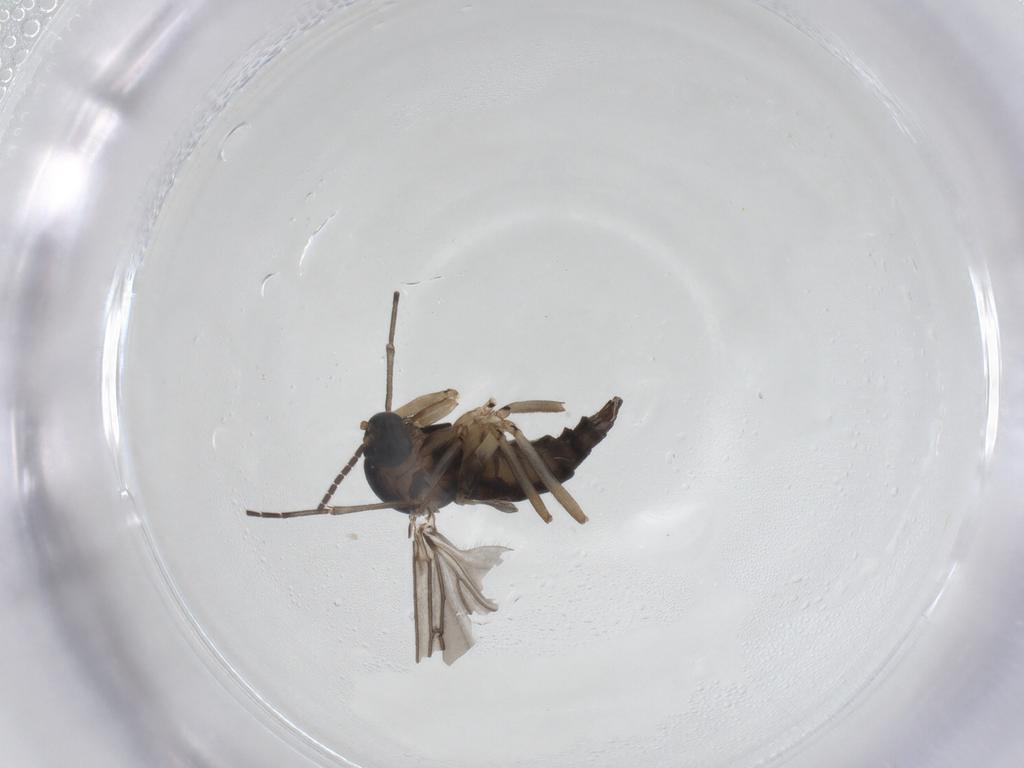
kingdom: Animalia
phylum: Arthropoda
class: Insecta
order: Diptera
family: Sciaridae
